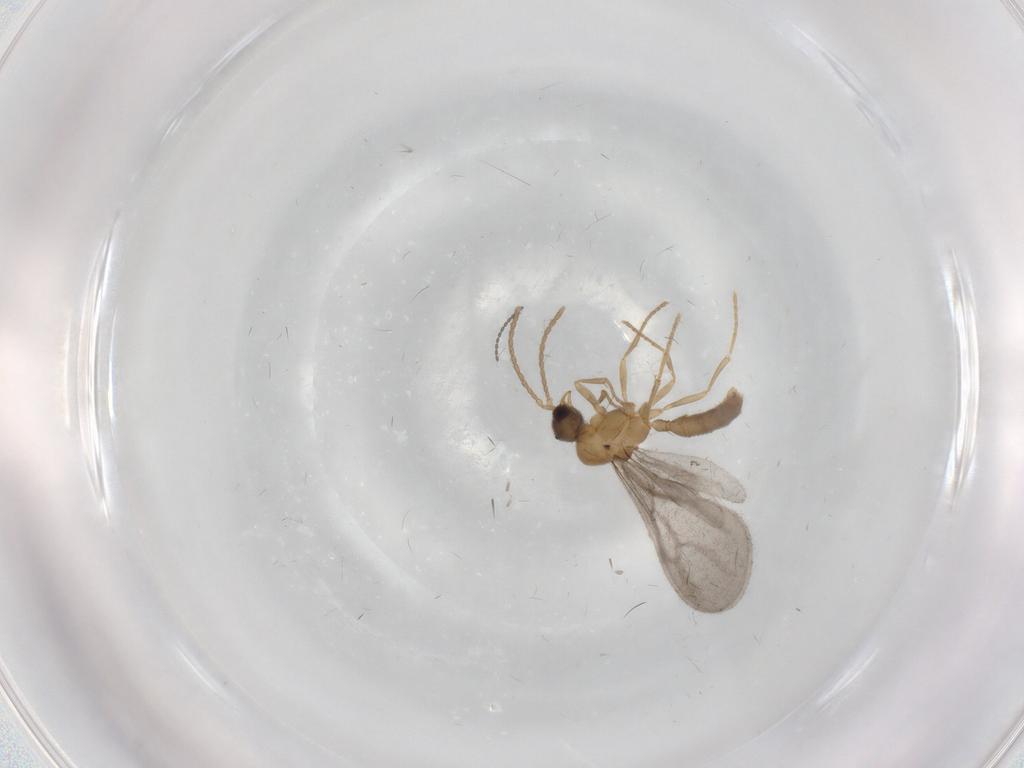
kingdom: Animalia
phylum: Arthropoda
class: Insecta
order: Hymenoptera
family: Formicidae
